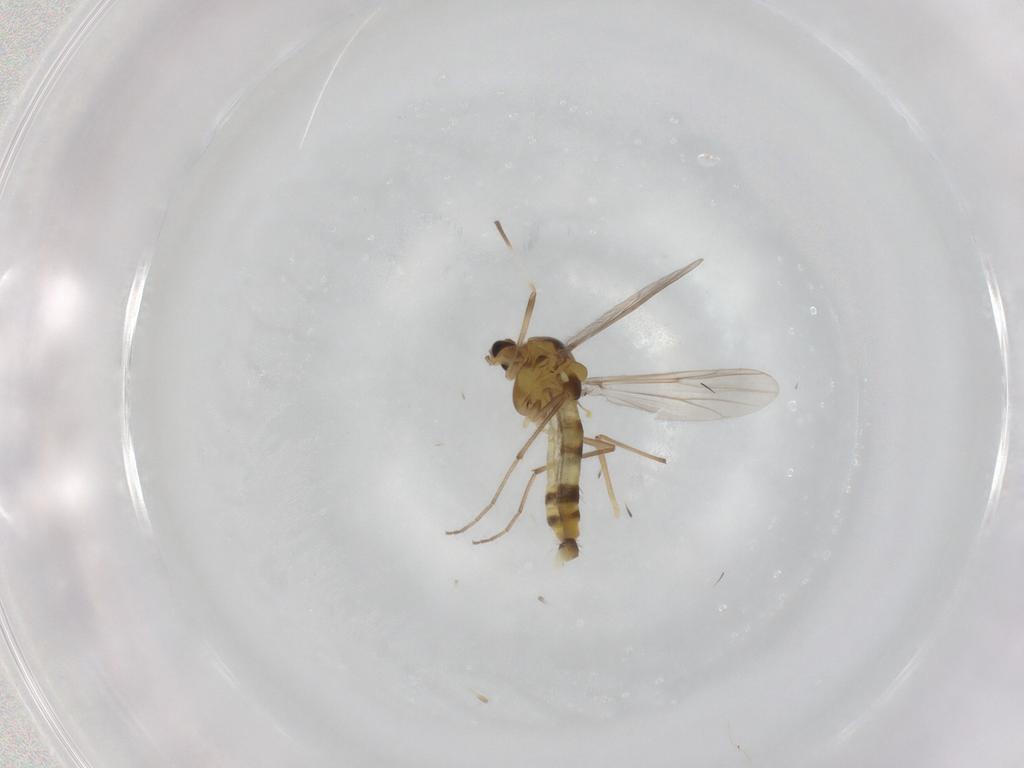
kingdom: Animalia
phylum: Arthropoda
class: Insecta
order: Diptera
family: Chironomidae
